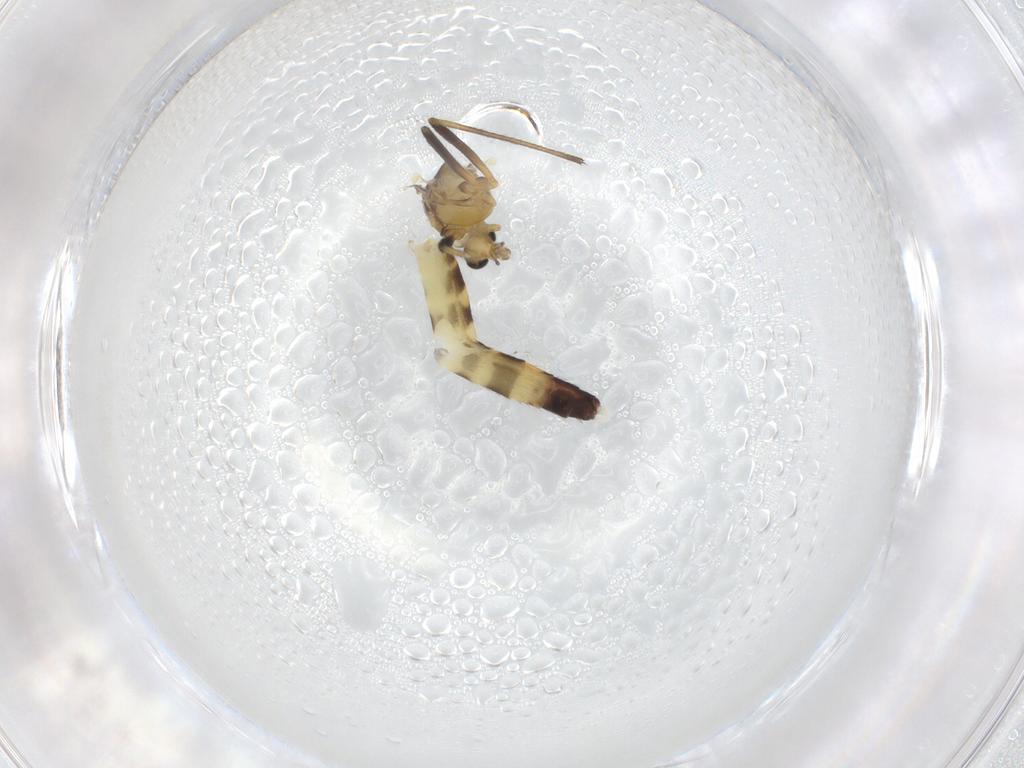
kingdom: Animalia
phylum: Arthropoda
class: Insecta
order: Diptera
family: Chironomidae
